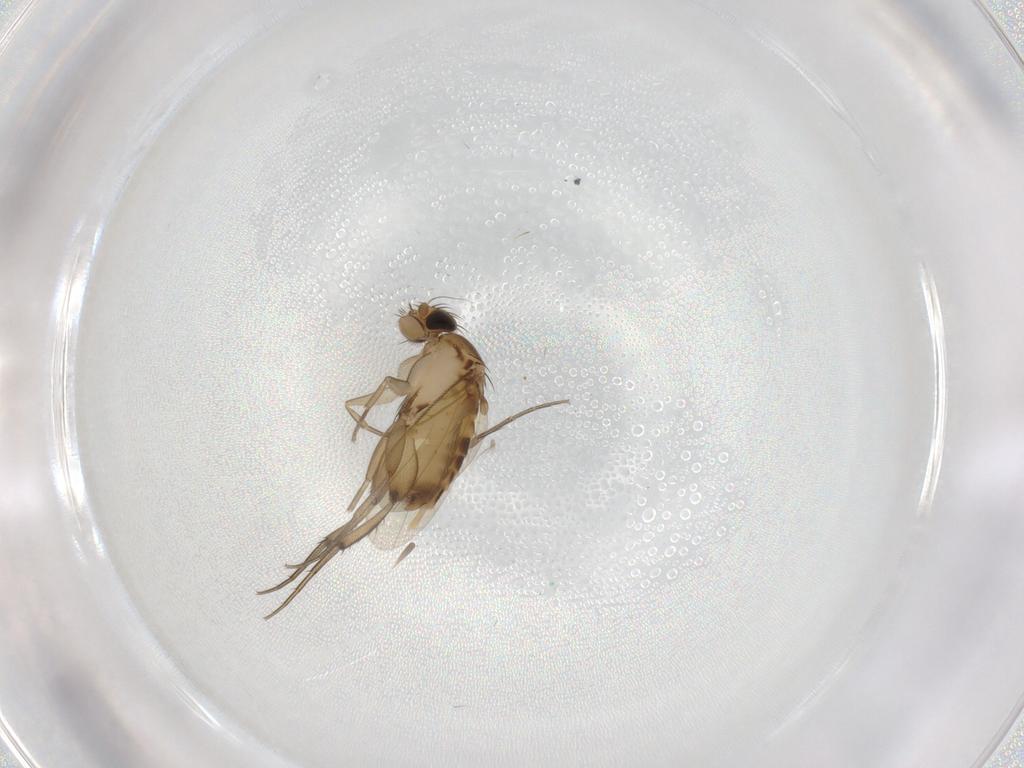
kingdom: Animalia
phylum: Arthropoda
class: Insecta
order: Diptera
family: Phoridae
